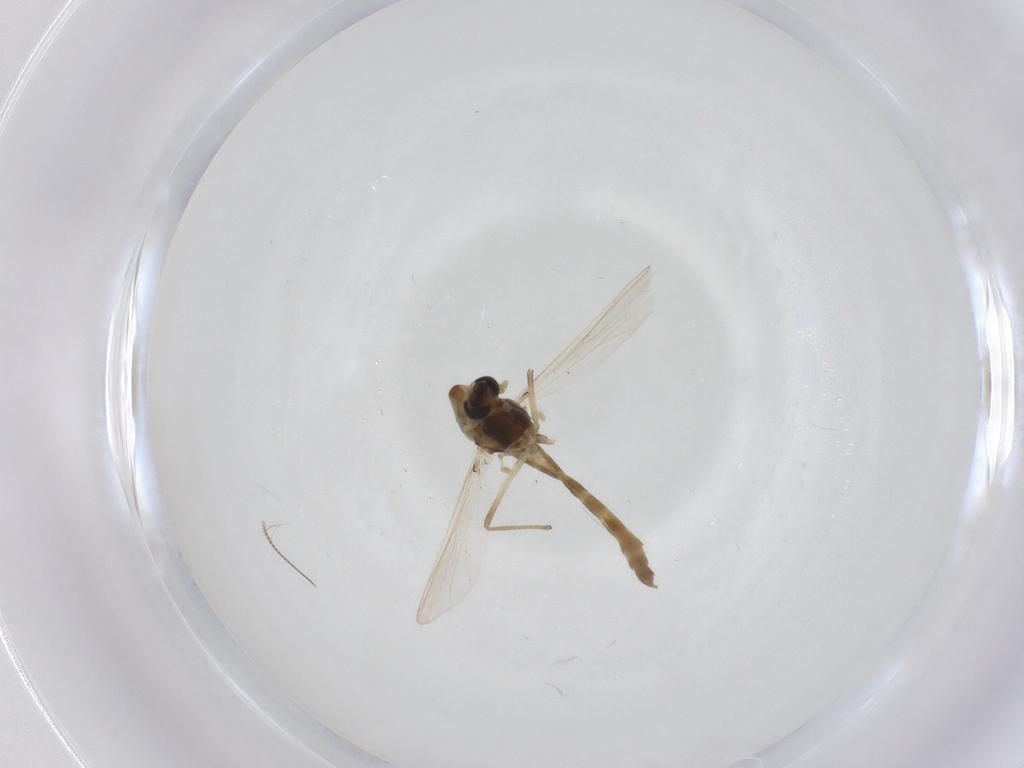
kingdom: Animalia
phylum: Arthropoda
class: Insecta
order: Diptera
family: Chironomidae
